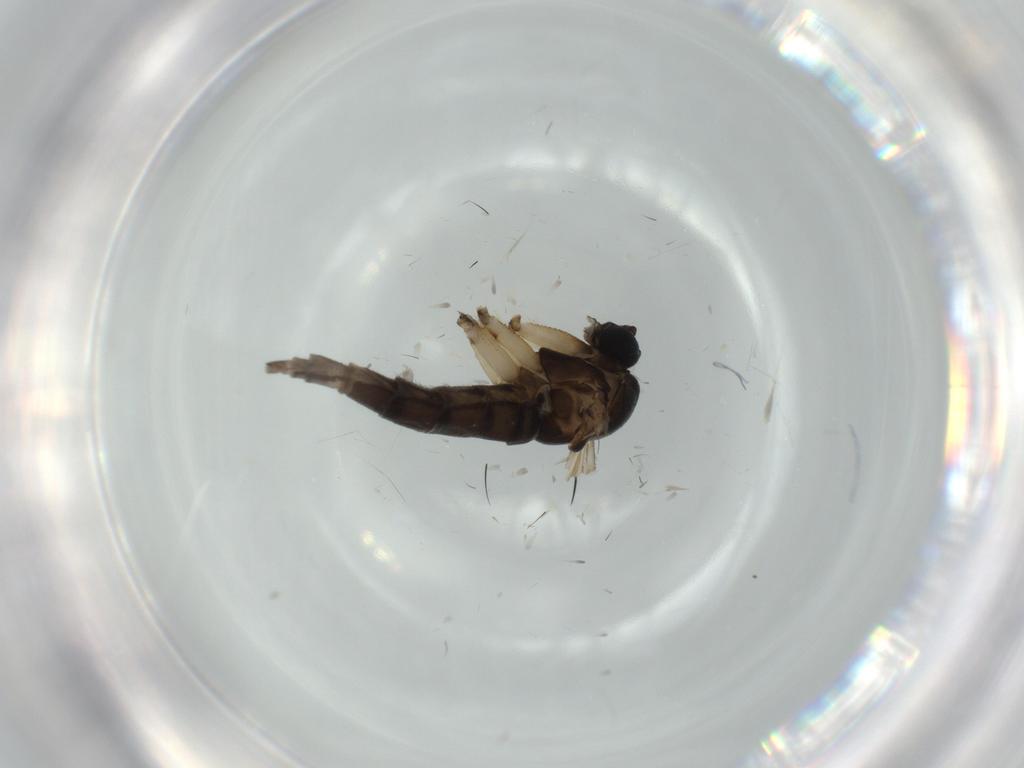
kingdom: Animalia
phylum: Arthropoda
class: Insecta
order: Diptera
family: Sciaridae
